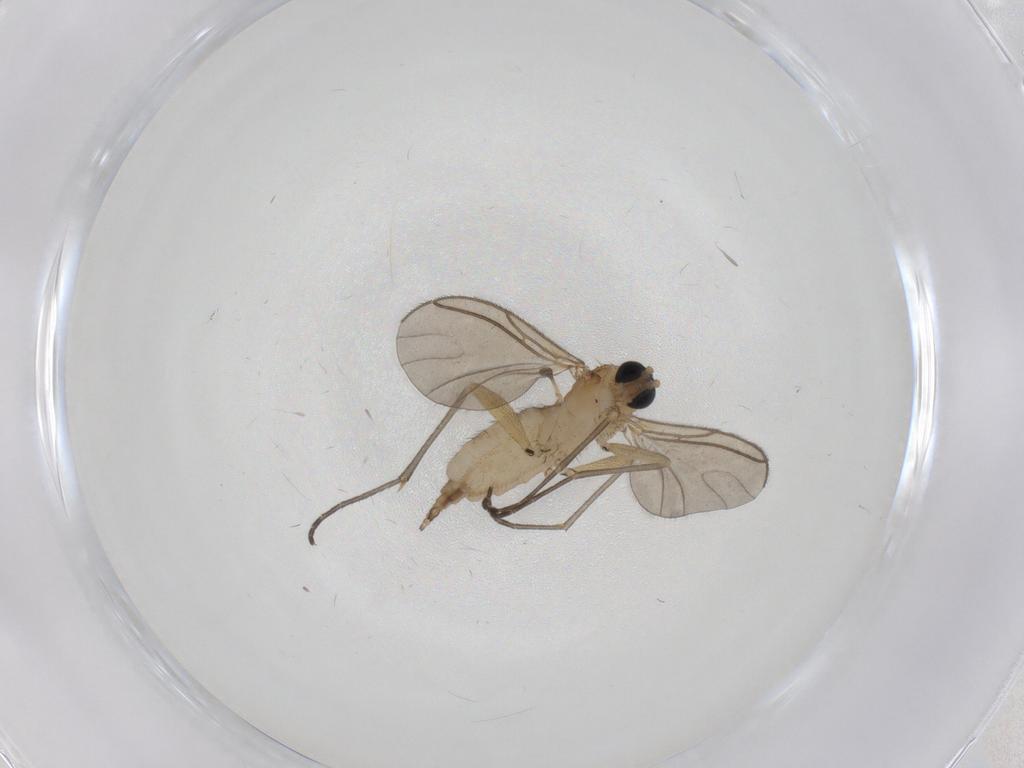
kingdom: Animalia
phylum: Arthropoda
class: Insecta
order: Diptera
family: Sciaridae
